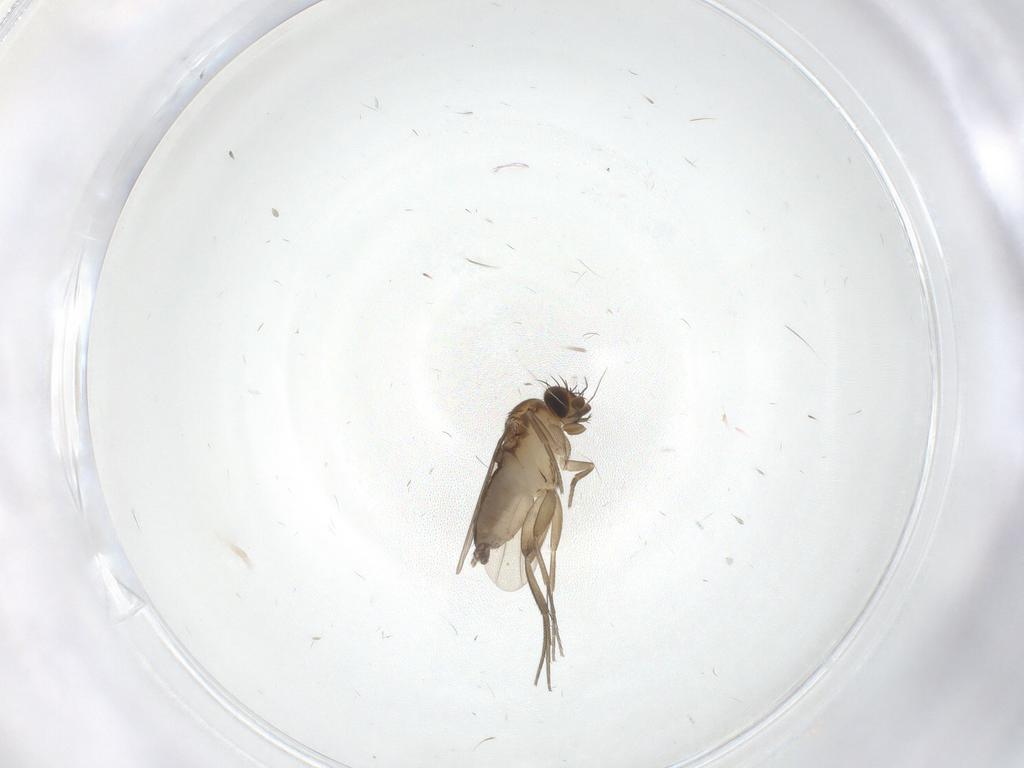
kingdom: Animalia
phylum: Arthropoda
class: Insecta
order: Diptera
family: Sphaeroceridae
